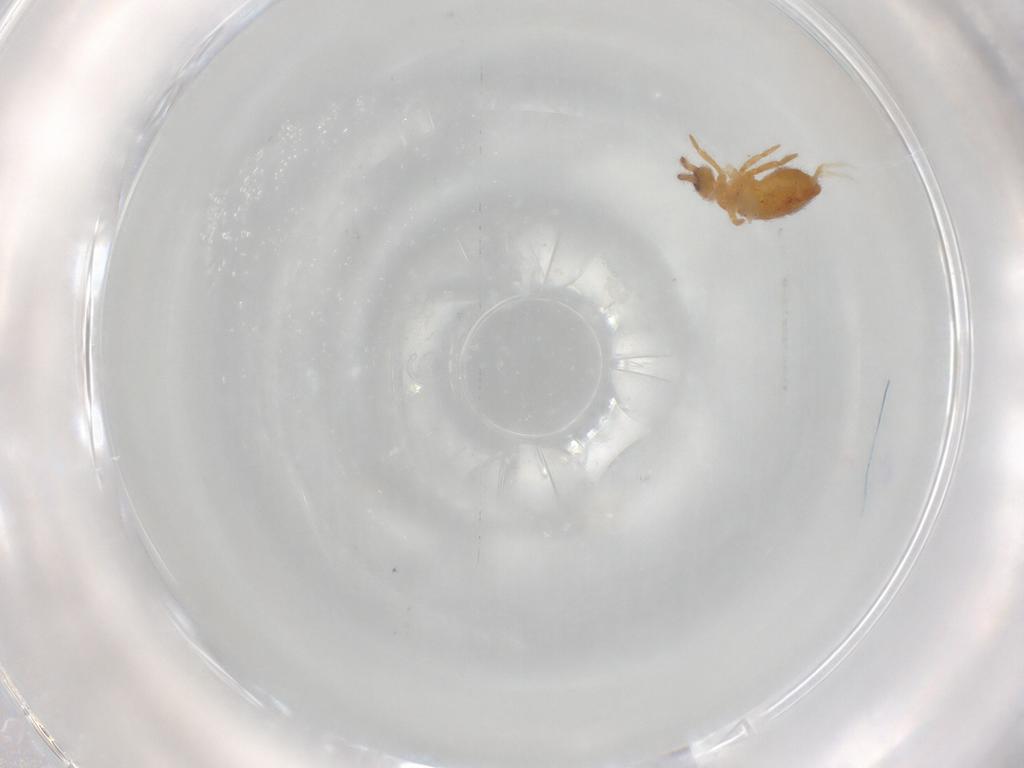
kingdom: Animalia
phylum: Arthropoda
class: Collembola
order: Entomobryomorpha
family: Entomobryidae
